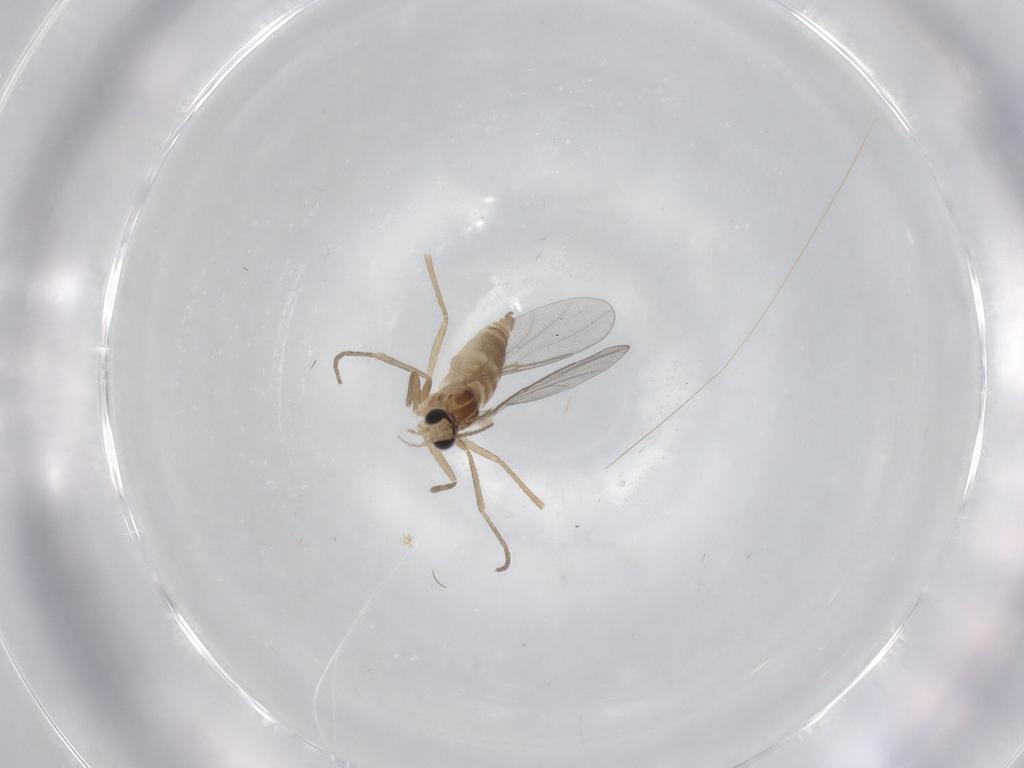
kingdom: Animalia
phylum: Arthropoda
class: Insecta
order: Diptera
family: Cecidomyiidae
